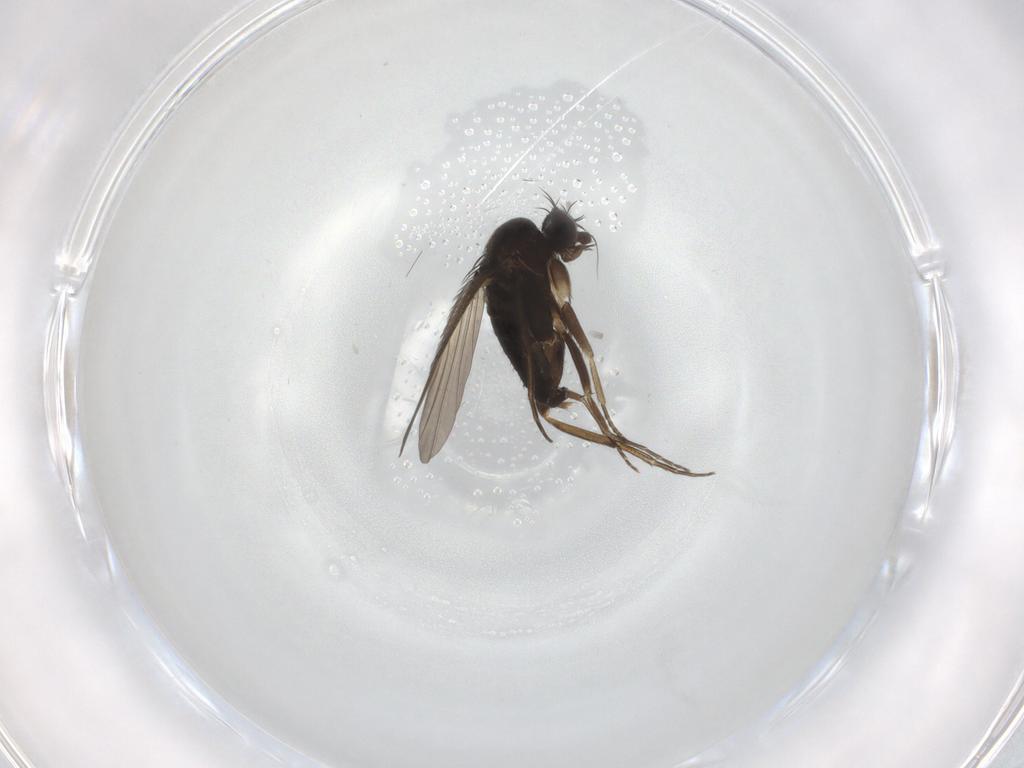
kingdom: Animalia
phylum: Arthropoda
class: Insecta
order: Diptera
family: Phoridae
